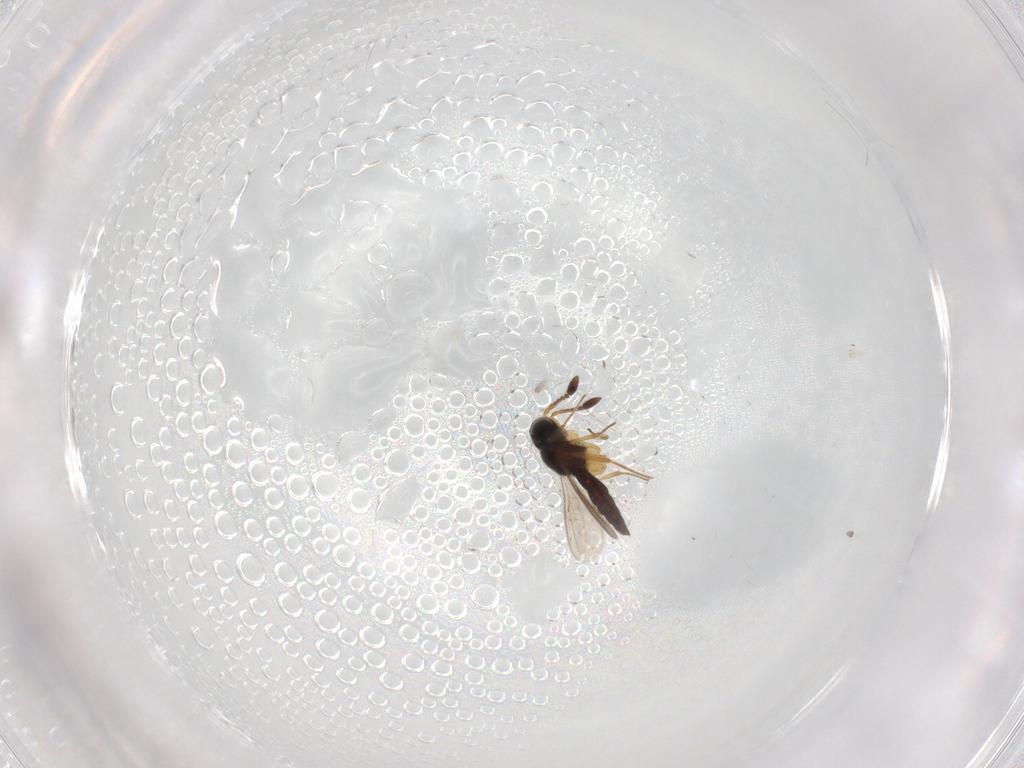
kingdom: Animalia
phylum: Arthropoda
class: Insecta
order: Hymenoptera
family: Scelionidae
